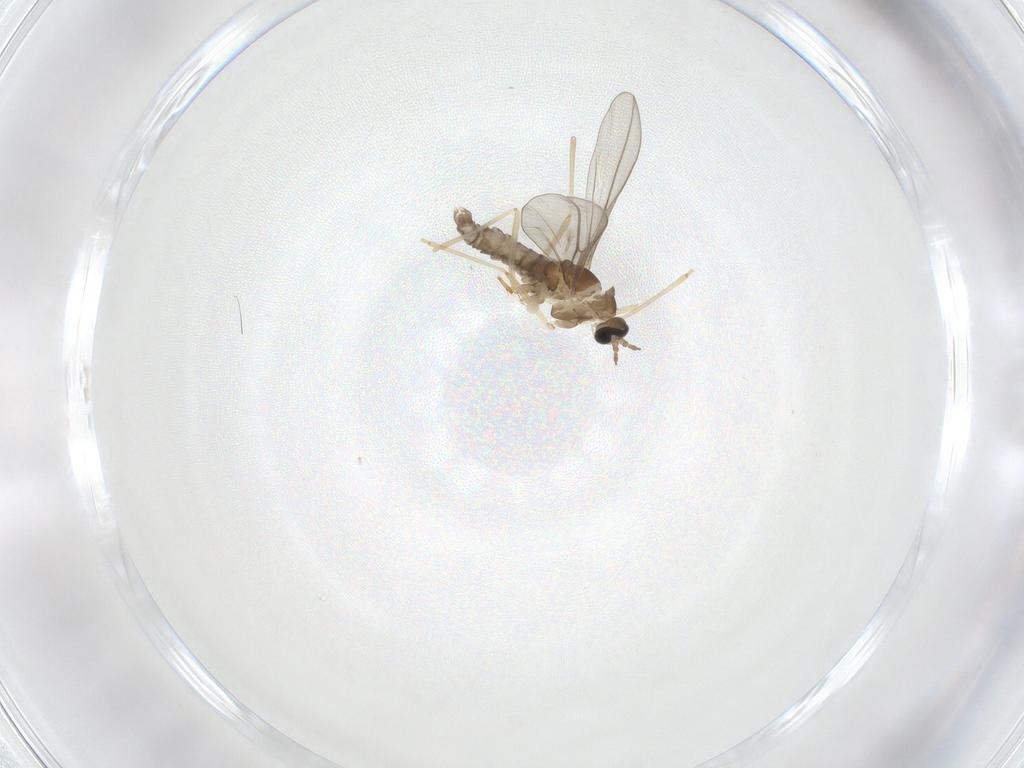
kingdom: Animalia
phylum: Arthropoda
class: Insecta
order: Diptera
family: Cecidomyiidae
